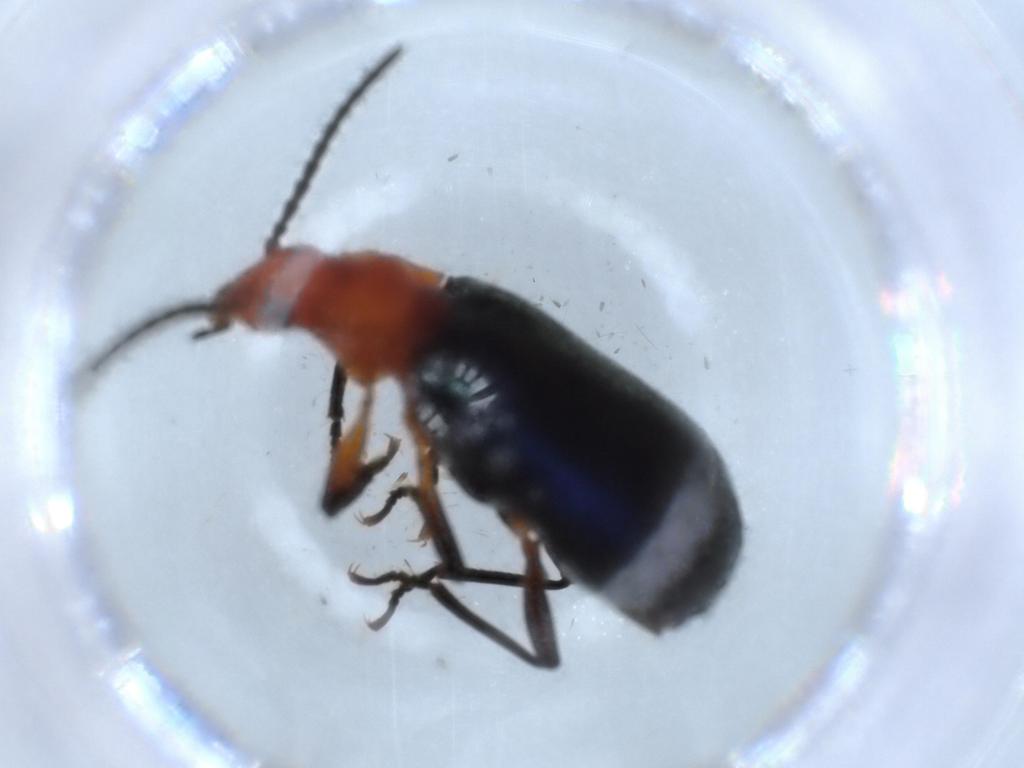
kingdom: Animalia
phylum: Arthropoda
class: Insecta
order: Coleoptera
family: Carabidae
